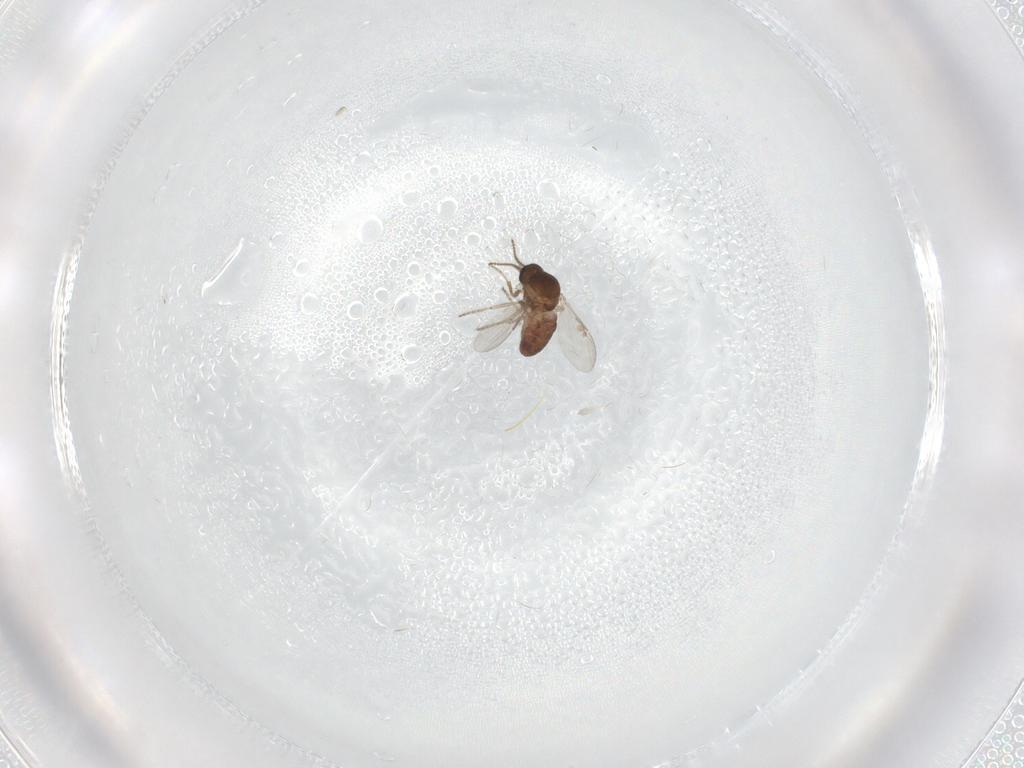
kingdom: Animalia
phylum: Arthropoda
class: Insecta
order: Diptera
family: Ceratopogonidae
